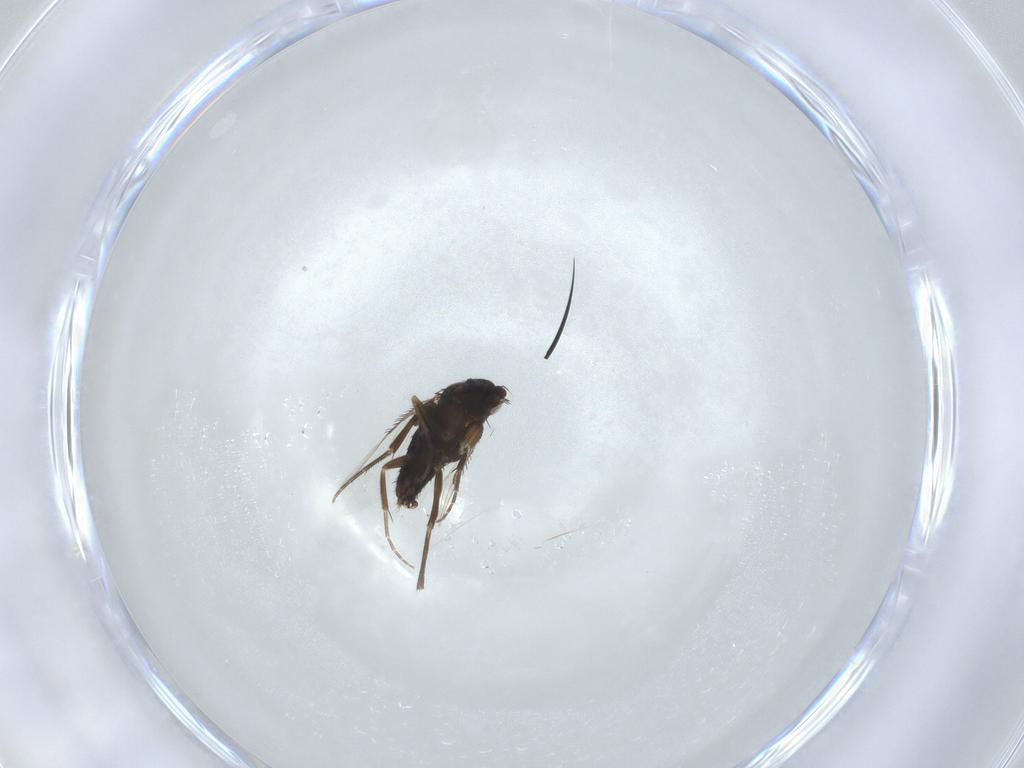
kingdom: Animalia
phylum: Arthropoda
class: Insecta
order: Diptera
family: Phoridae
